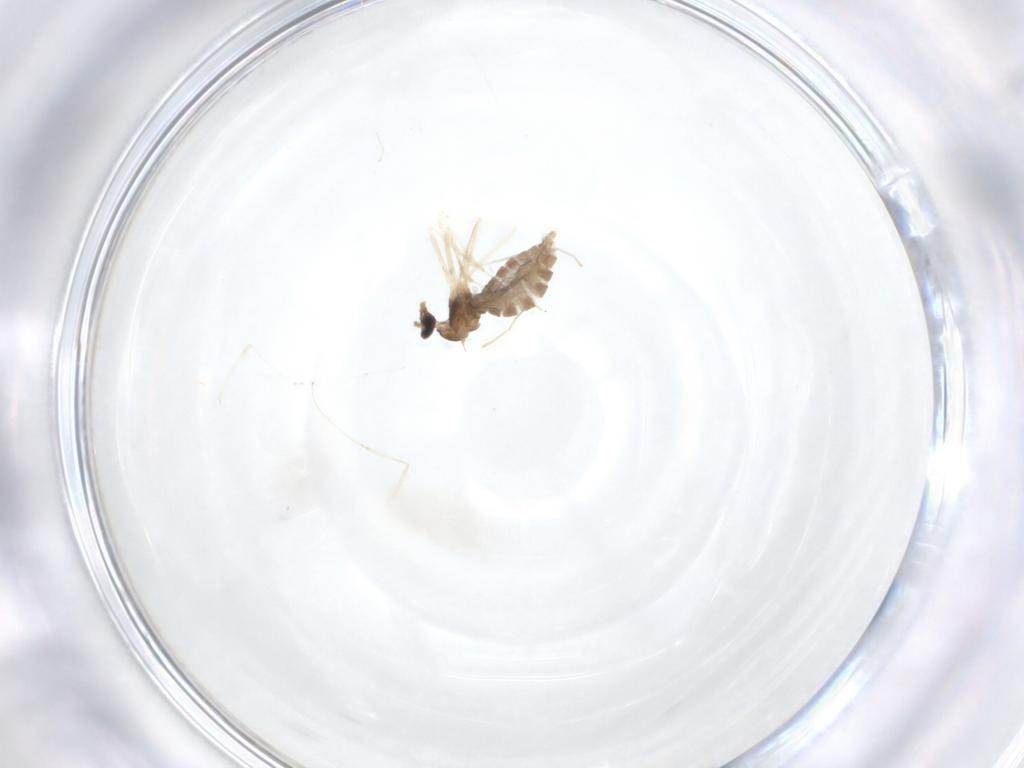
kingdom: Animalia
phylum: Arthropoda
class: Insecta
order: Diptera
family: Cecidomyiidae
